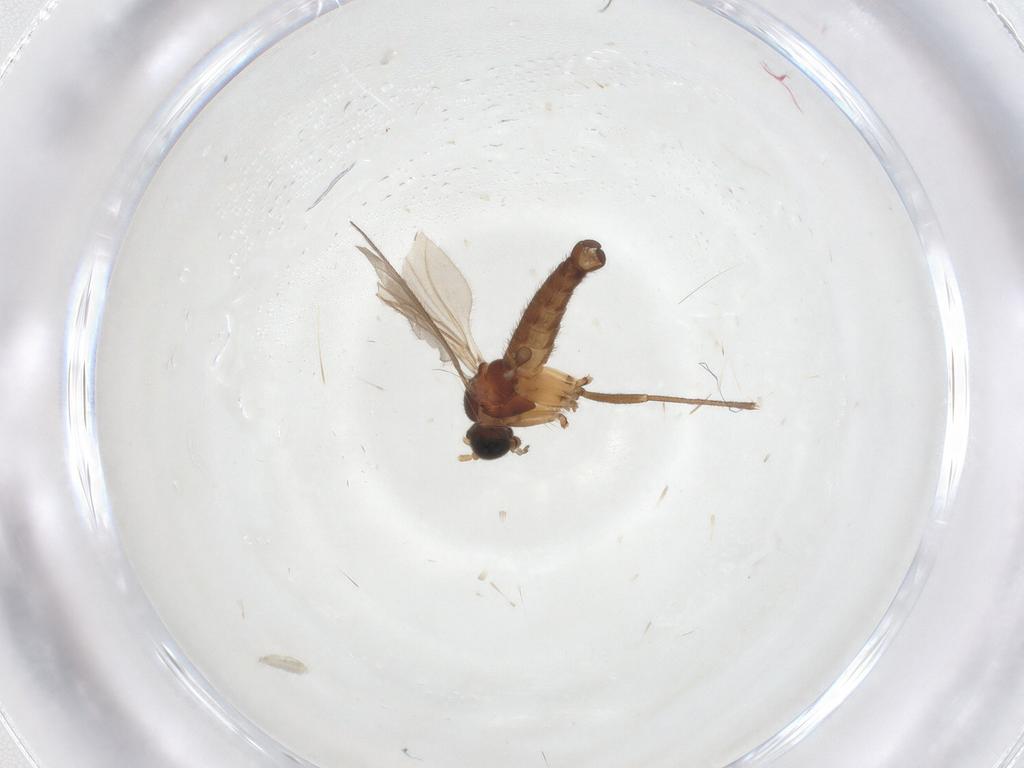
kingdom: Animalia
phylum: Arthropoda
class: Insecta
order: Diptera
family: Sciaridae
